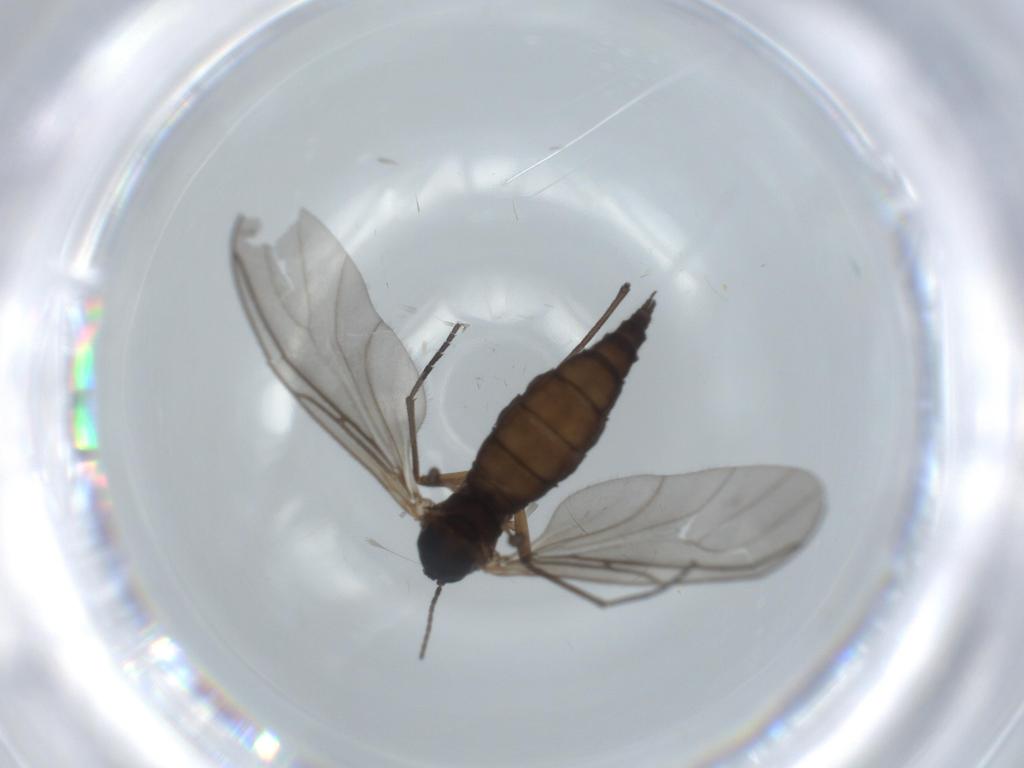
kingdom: Animalia
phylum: Arthropoda
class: Insecta
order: Diptera
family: Sciaridae
